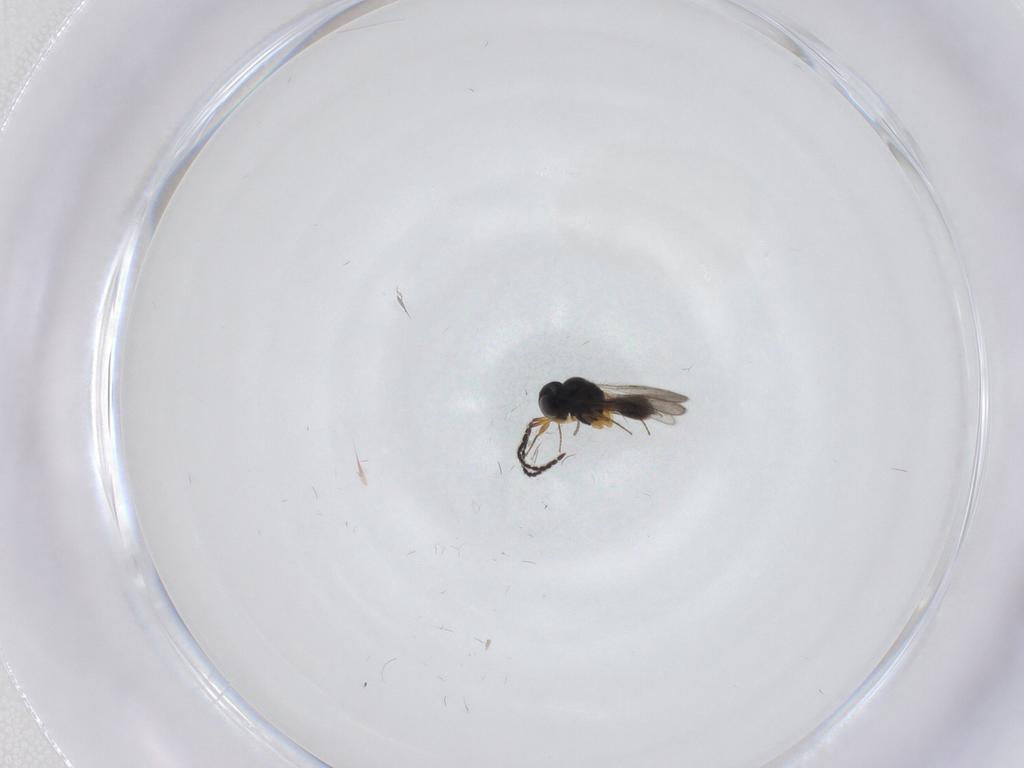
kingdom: Animalia
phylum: Arthropoda
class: Insecta
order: Hymenoptera
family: Scelionidae
